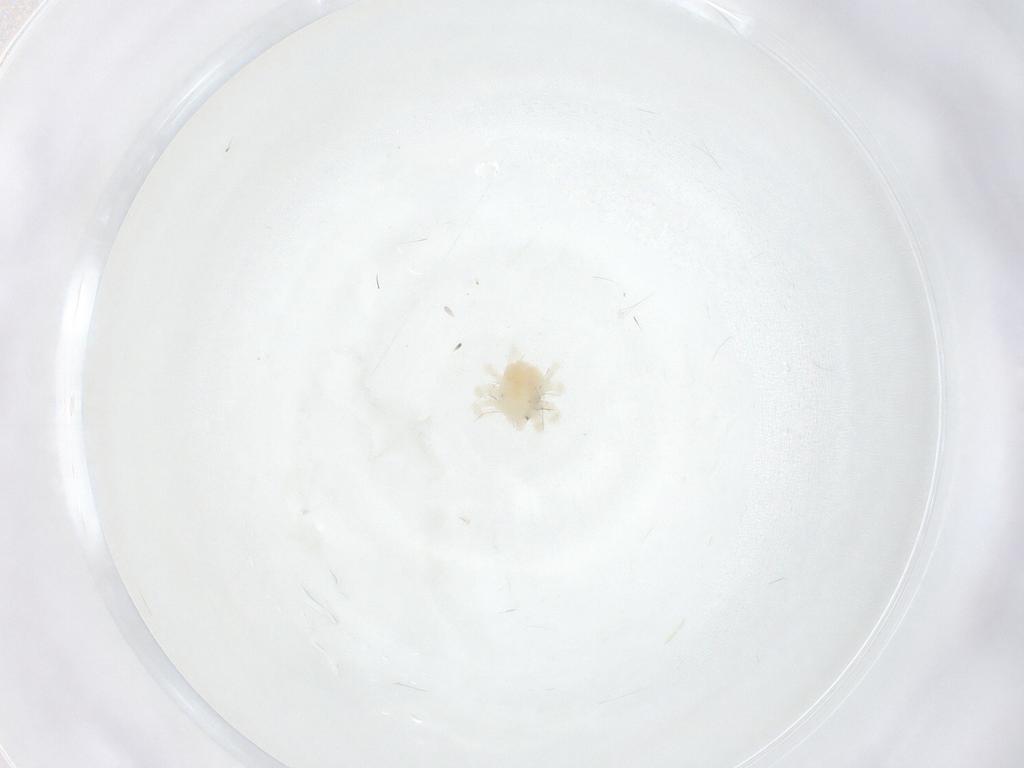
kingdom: Animalia
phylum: Arthropoda
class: Arachnida
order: Trombidiformes
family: Anystidae
